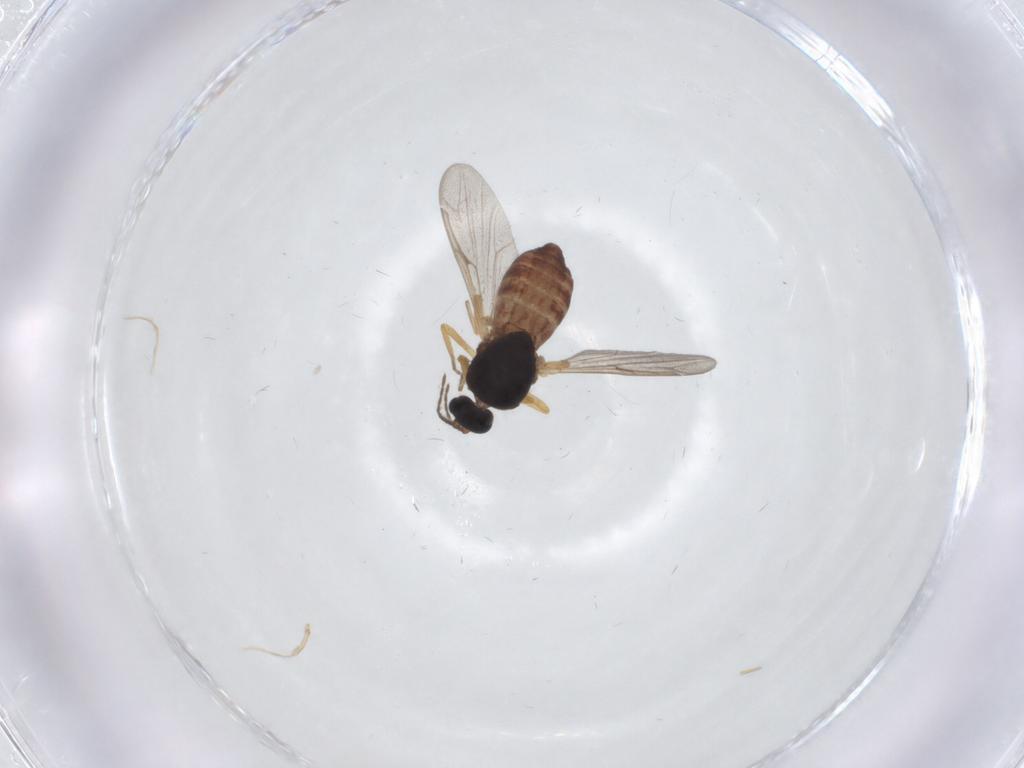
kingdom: Animalia
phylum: Arthropoda
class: Insecta
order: Diptera
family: Ceratopogonidae
